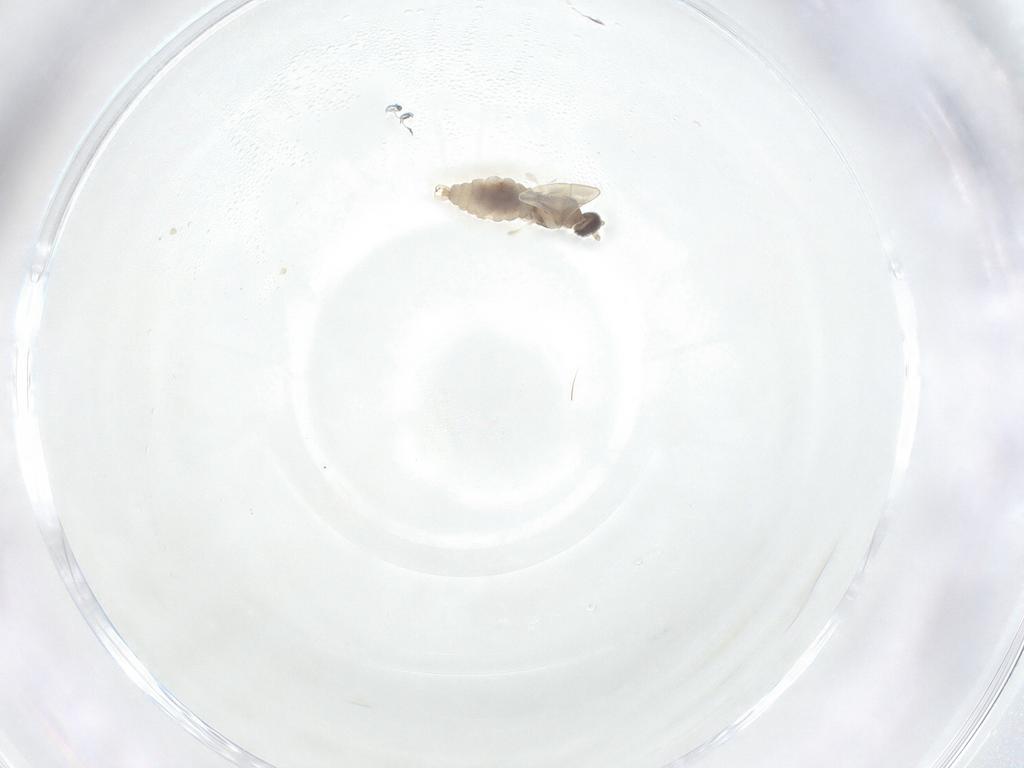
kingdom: Animalia
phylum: Arthropoda
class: Insecta
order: Diptera
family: Cecidomyiidae
